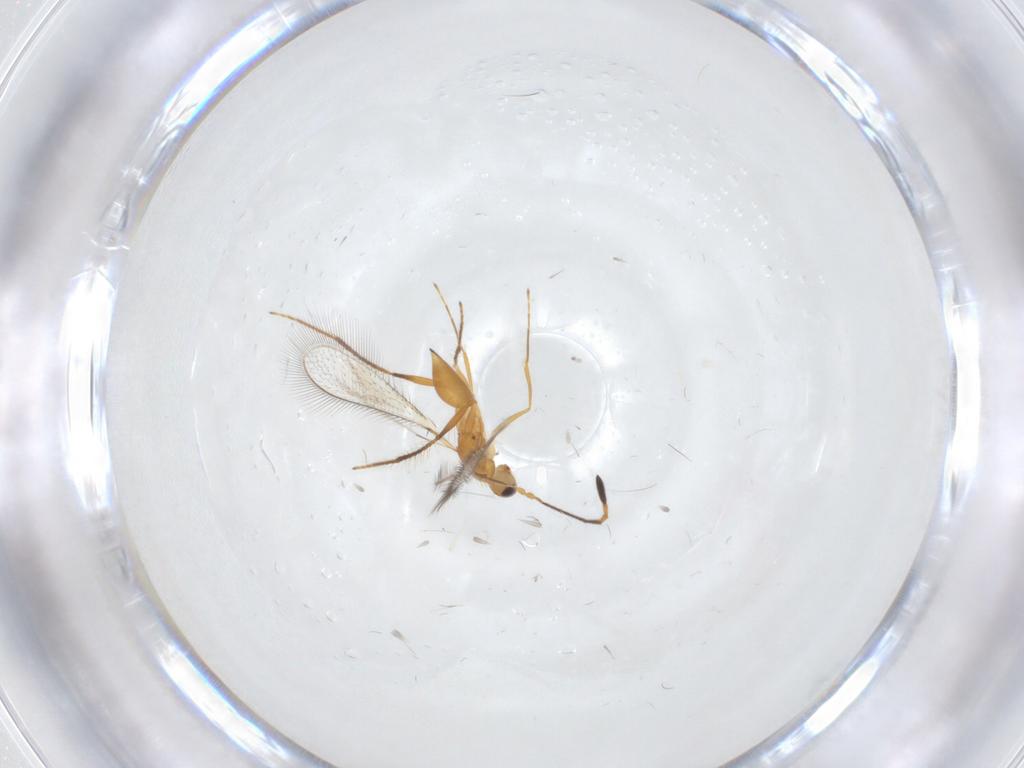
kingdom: Animalia
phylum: Arthropoda
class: Insecta
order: Hymenoptera
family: Mymaridae
